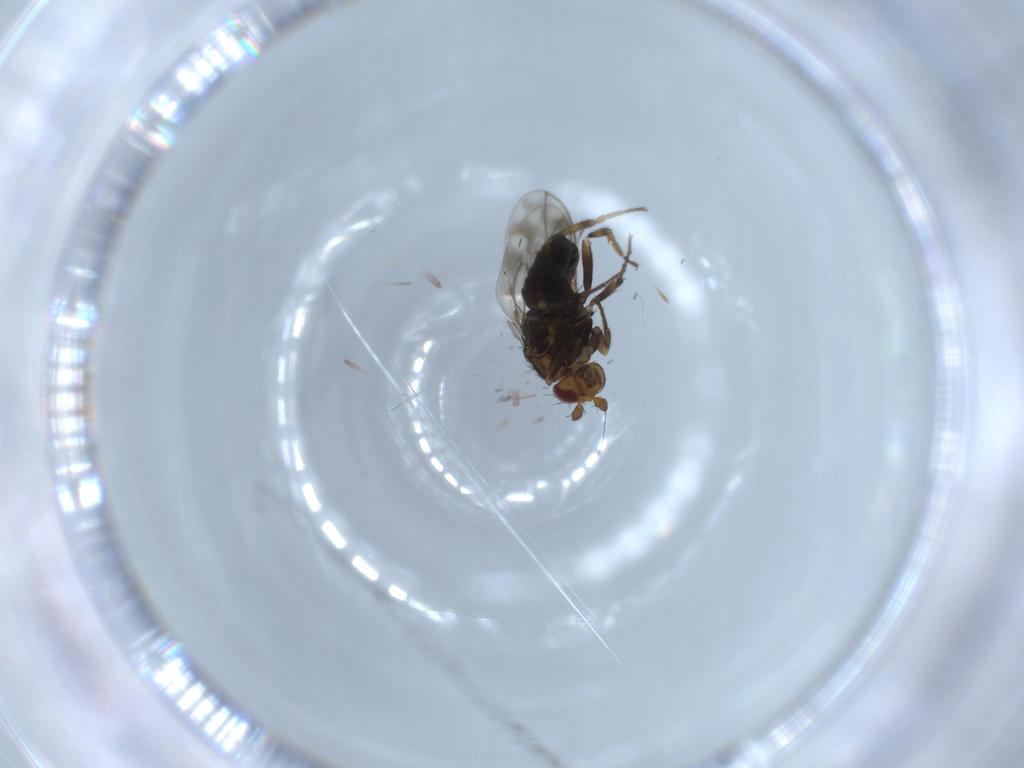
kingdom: Animalia
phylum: Arthropoda
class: Insecta
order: Diptera
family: Sphaeroceridae
